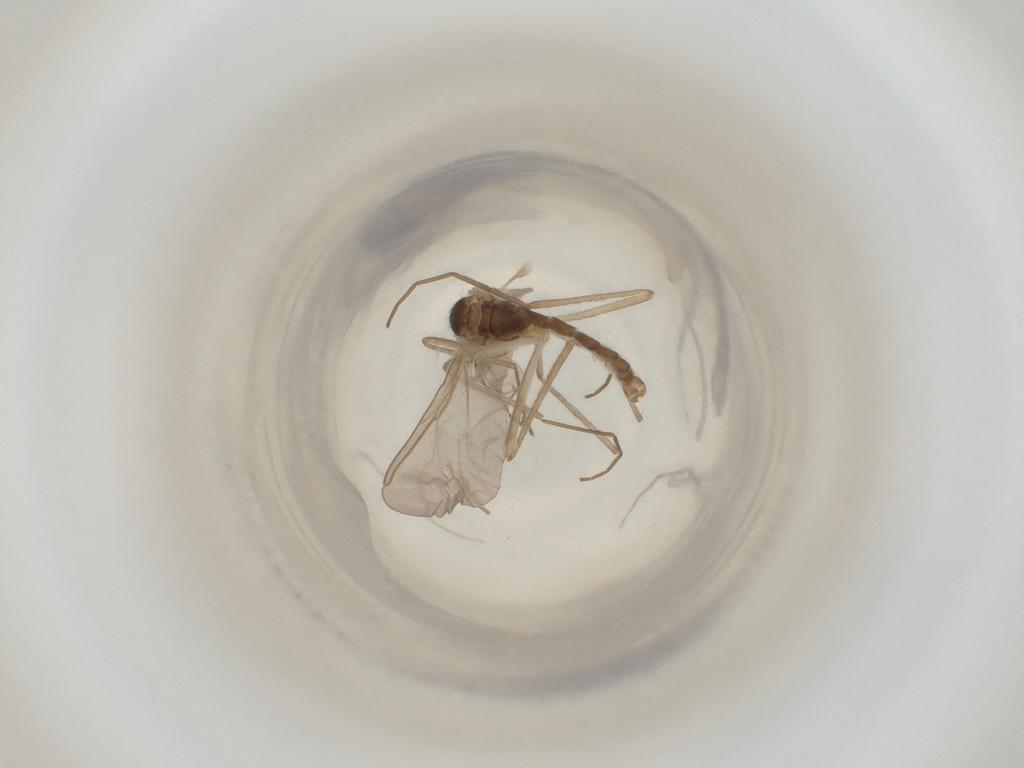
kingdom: Animalia
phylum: Arthropoda
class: Insecta
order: Diptera
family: Cecidomyiidae
